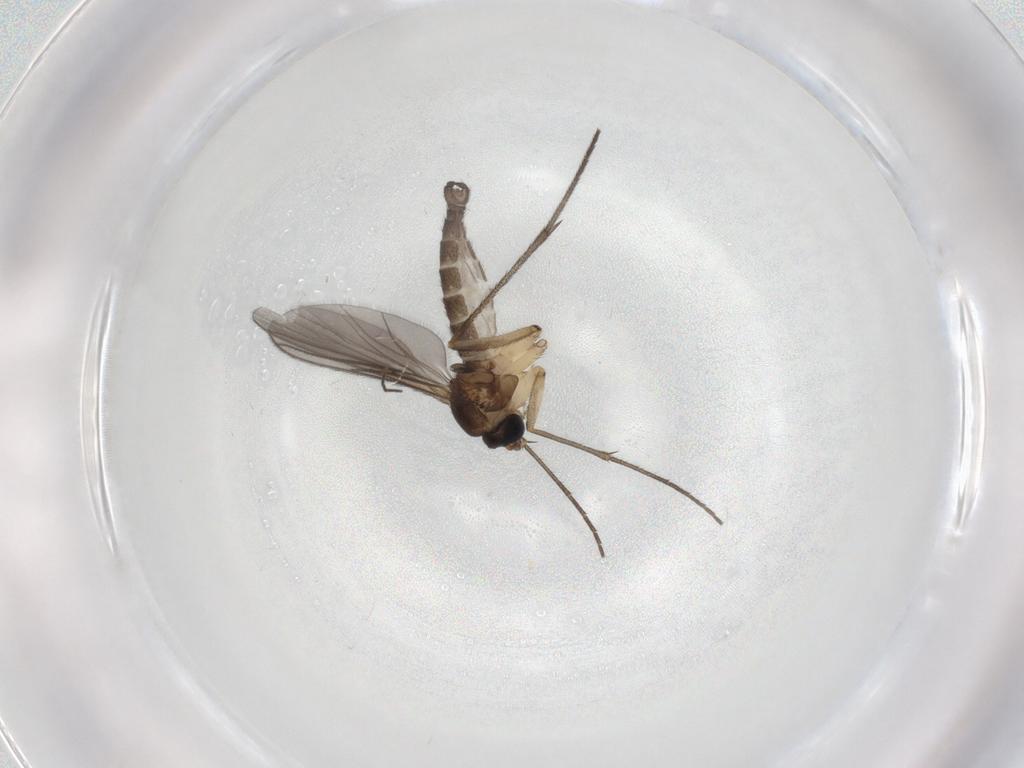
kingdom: Animalia
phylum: Arthropoda
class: Insecta
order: Diptera
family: Sciaridae
